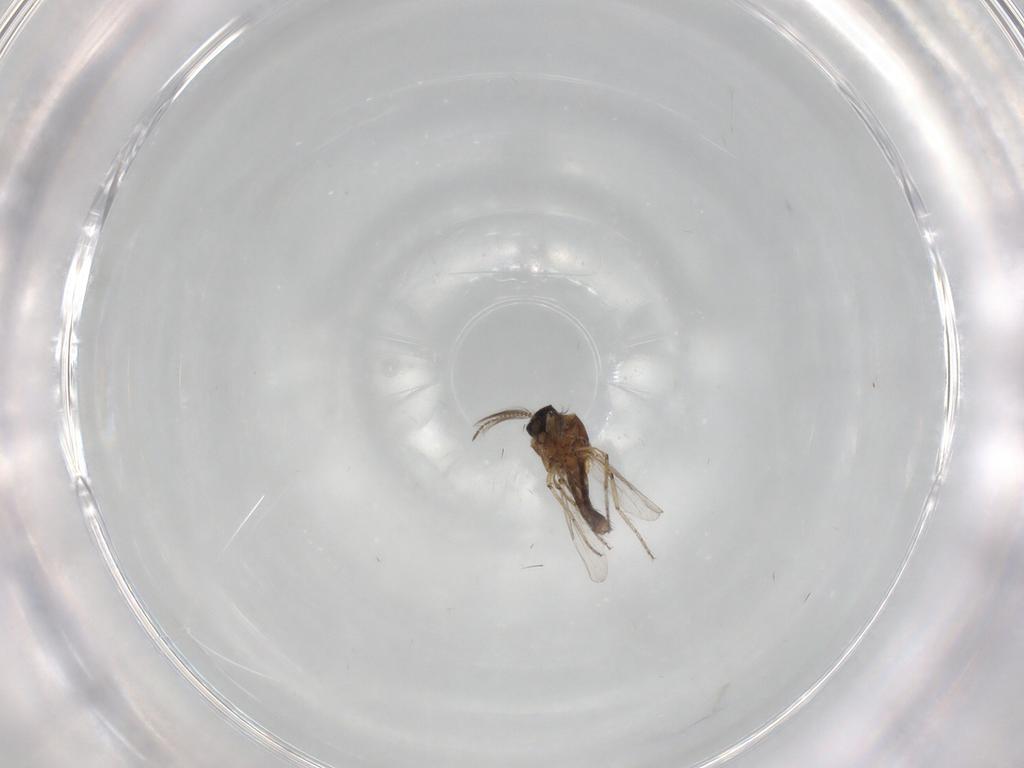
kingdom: Animalia
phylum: Arthropoda
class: Insecta
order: Diptera
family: Ceratopogonidae
